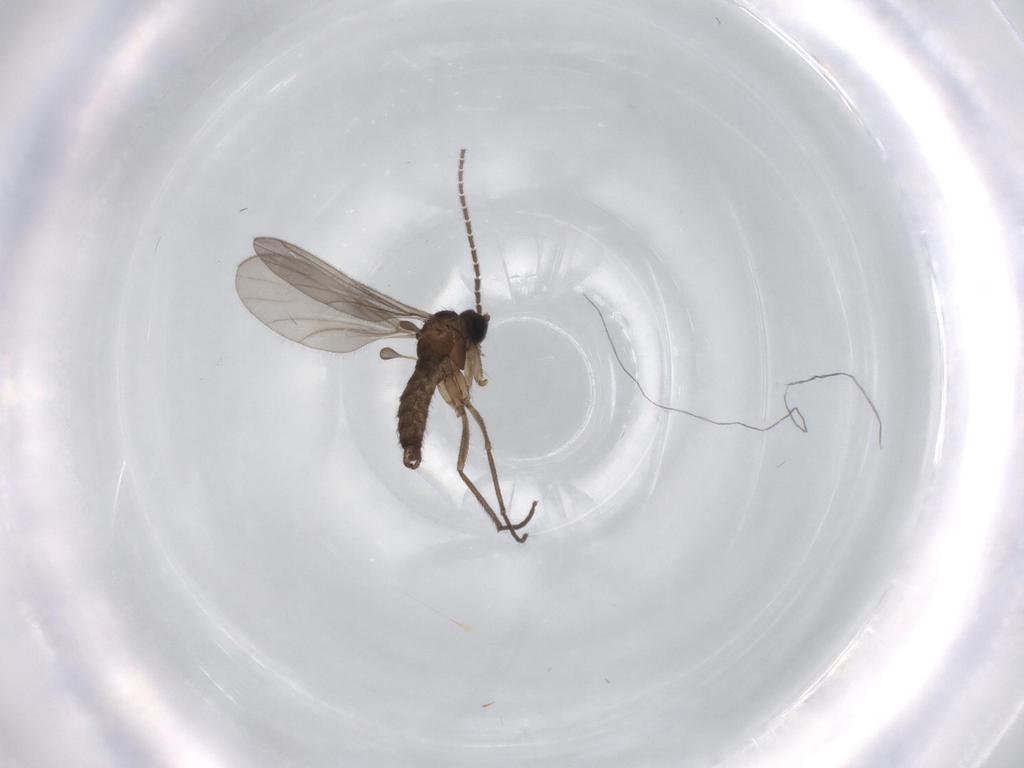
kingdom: Animalia
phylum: Arthropoda
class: Insecta
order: Diptera
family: Sciaridae
